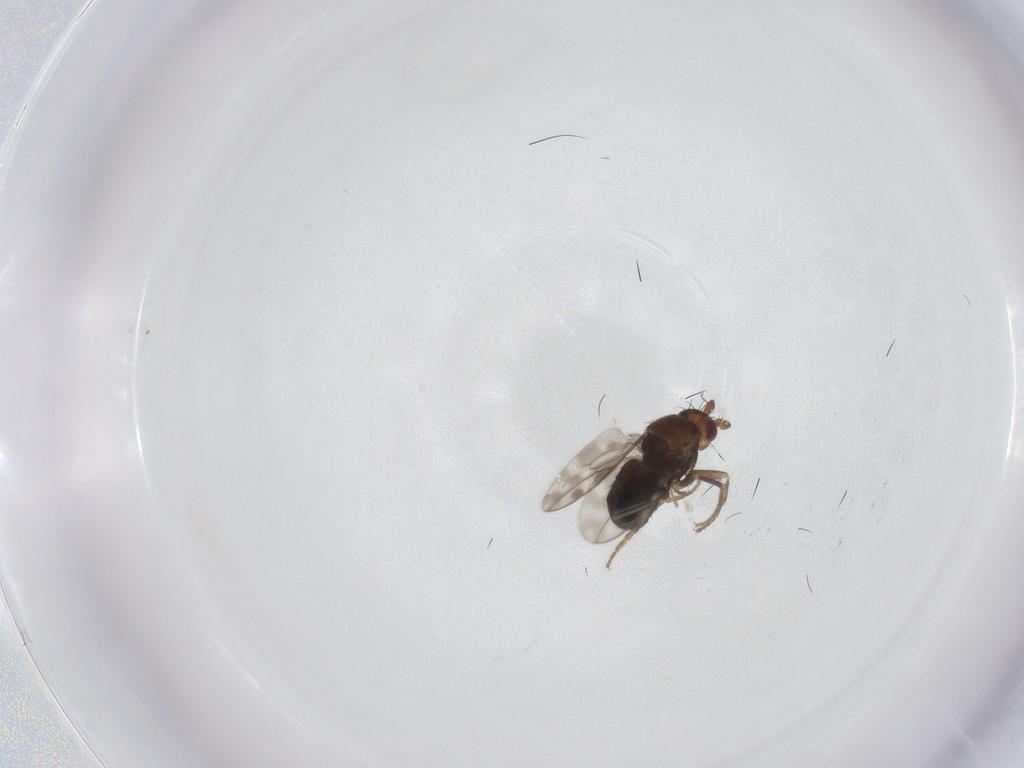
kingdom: Animalia
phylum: Arthropoda
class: Insecta
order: Diptera
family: Sphaeroceridae
